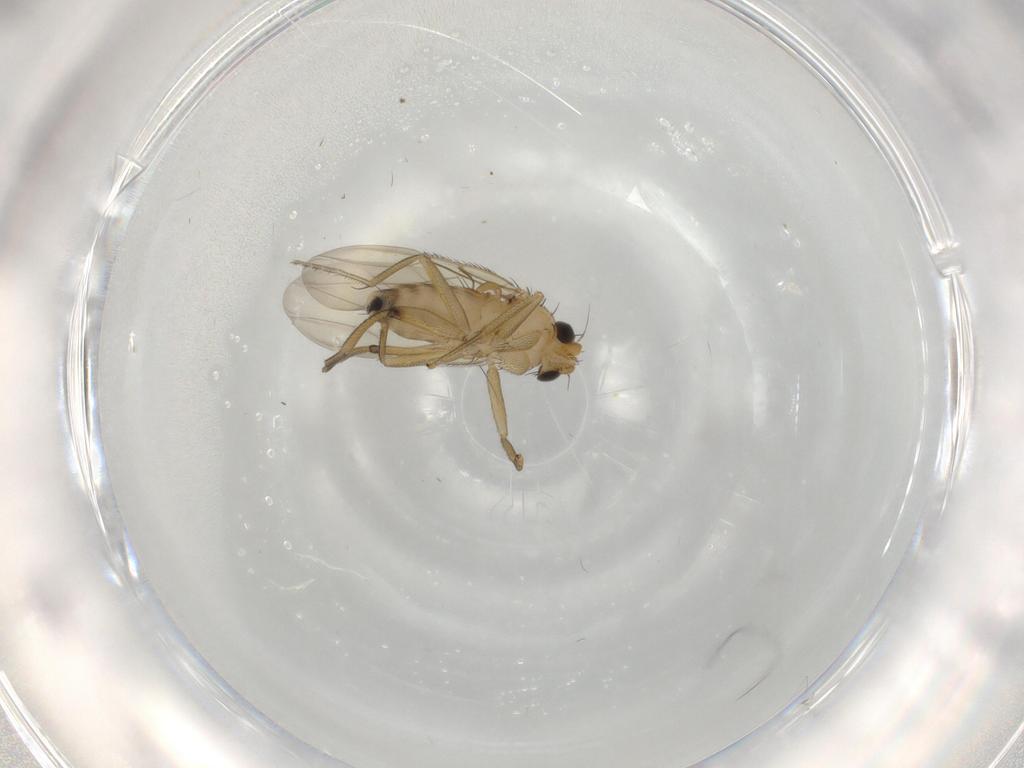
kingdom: Animalia
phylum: Arthropoda
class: Insecta
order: Diptera
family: Phoridae
